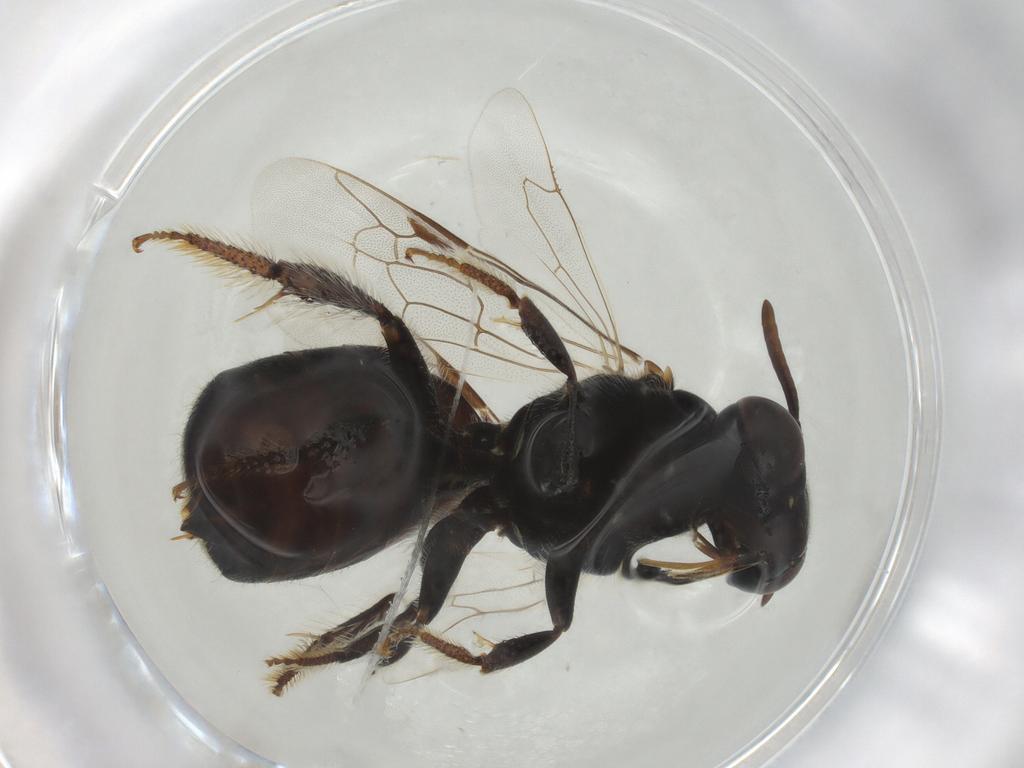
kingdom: Animalia
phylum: Arthropoda
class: Insecta
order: Hymenoptera
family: Apidae
